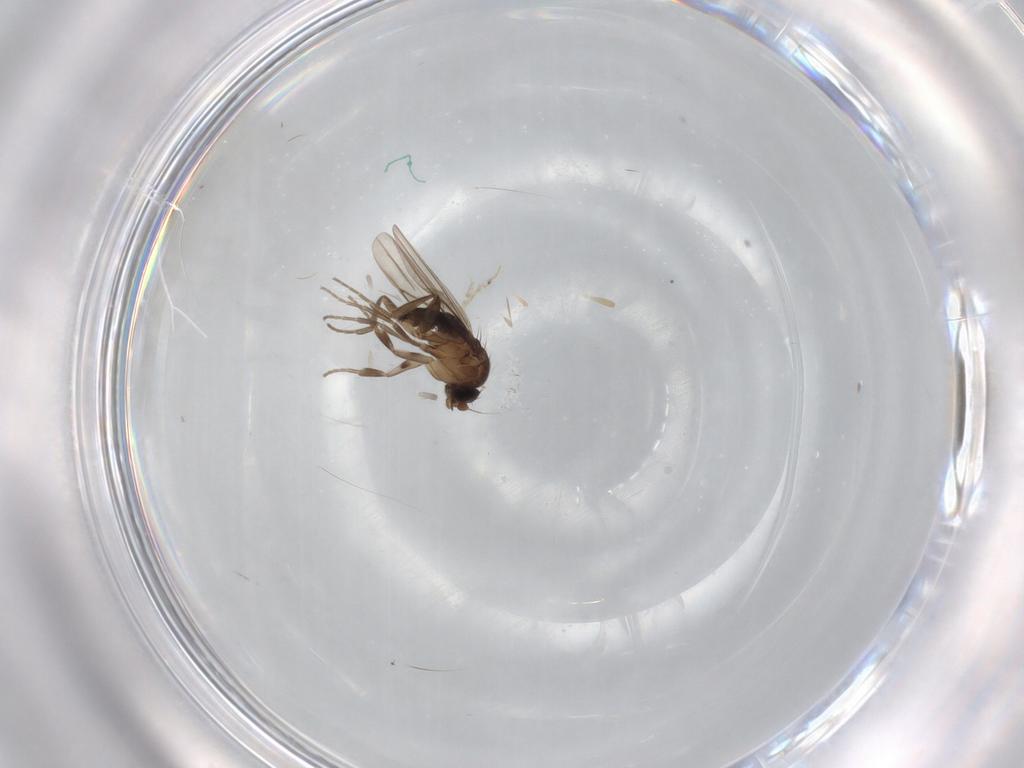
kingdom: Animalia
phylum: Arthropoda
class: Insecta
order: Diptera
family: Phoridae
